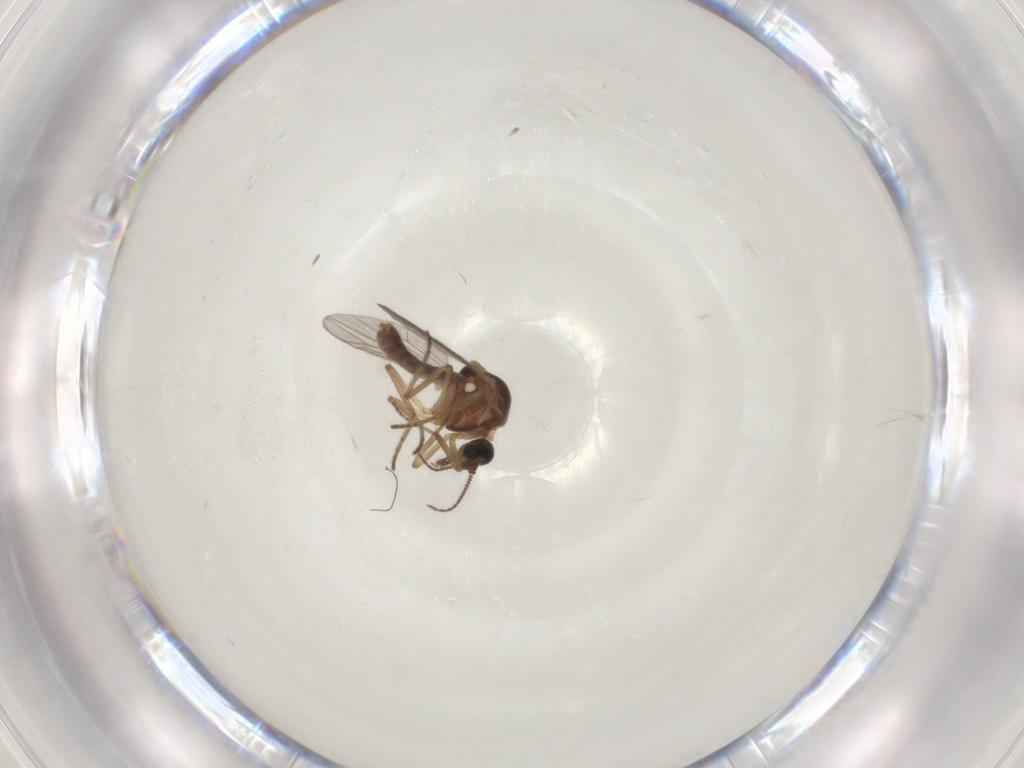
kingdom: Animalia
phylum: Arthropoda
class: Insecta
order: Diptera
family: Ceratopogonidae
